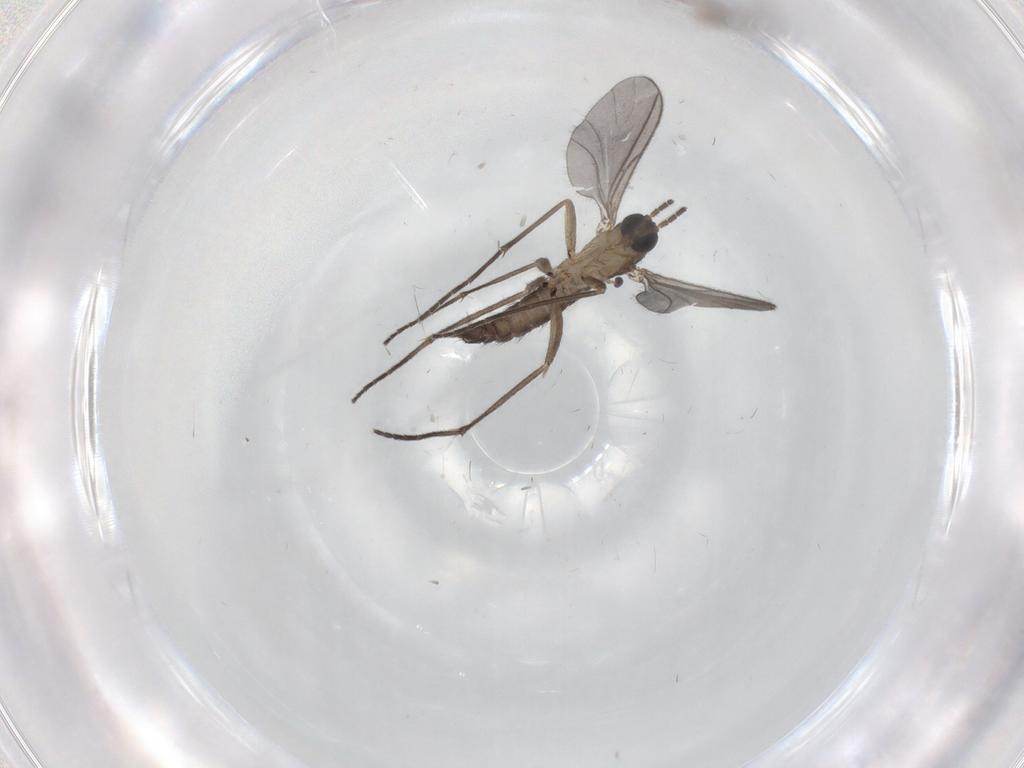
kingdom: Animalia
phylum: Arthropoda
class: Insecta
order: Diptera
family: Sciaridae
